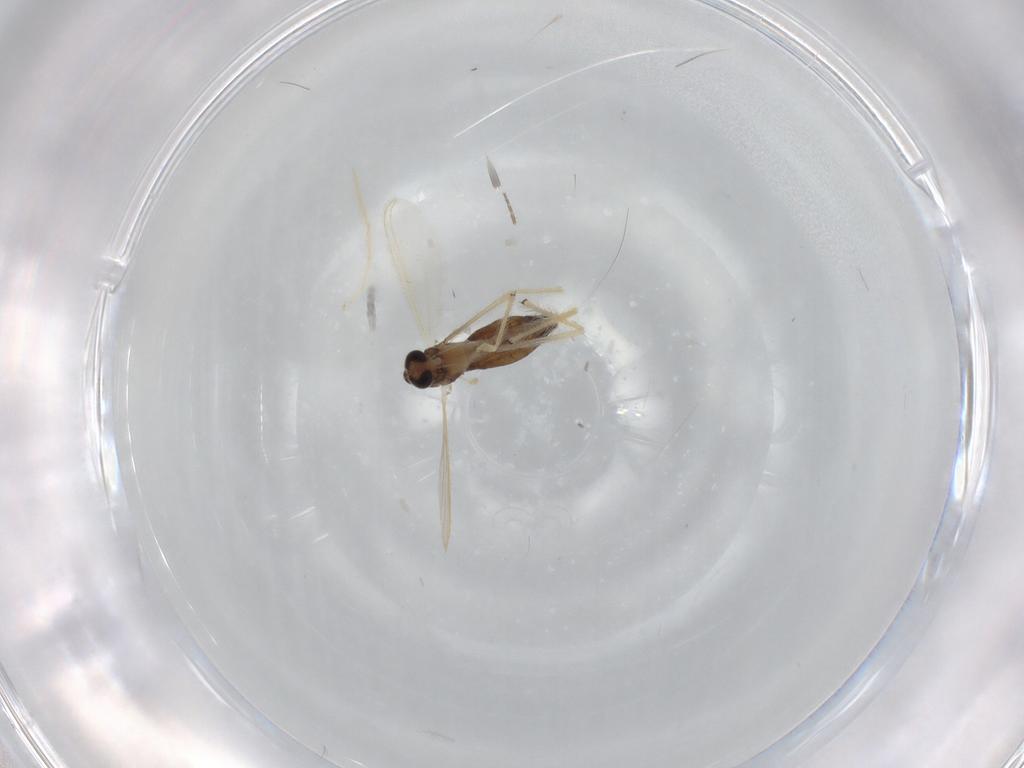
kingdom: Animalia
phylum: Arthropoda
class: Insecta
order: Diptera
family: Chironomidae
